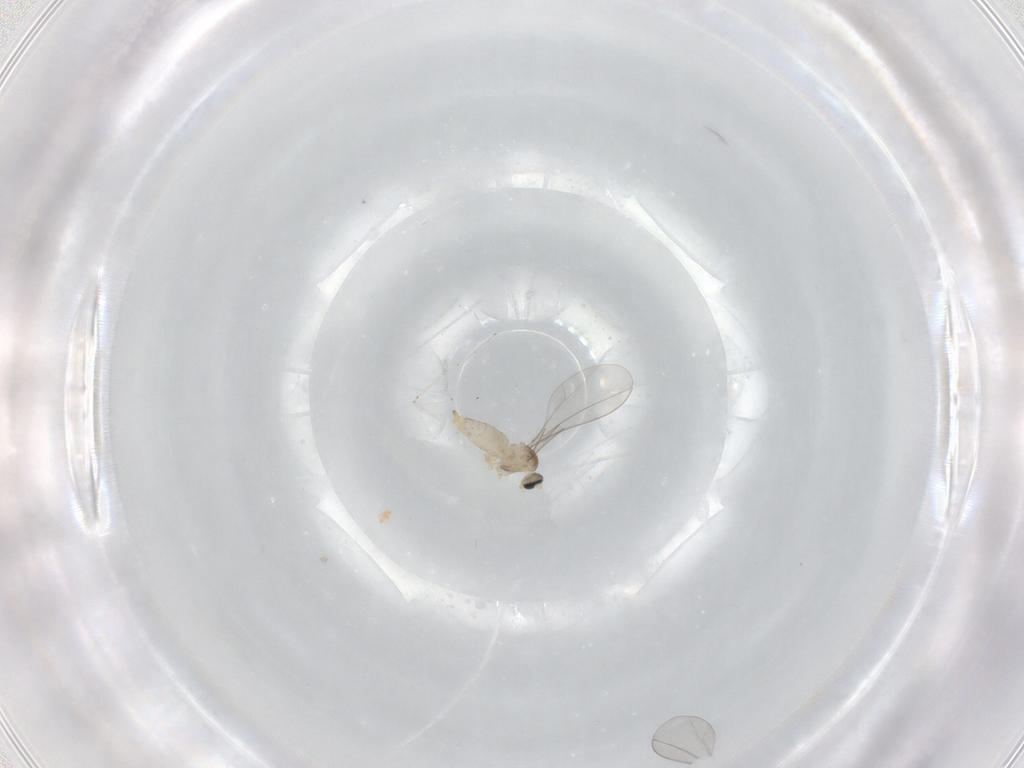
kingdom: Animalia
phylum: Arthropoda
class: Insecta
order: Diptera
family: Cecidomyiidae
